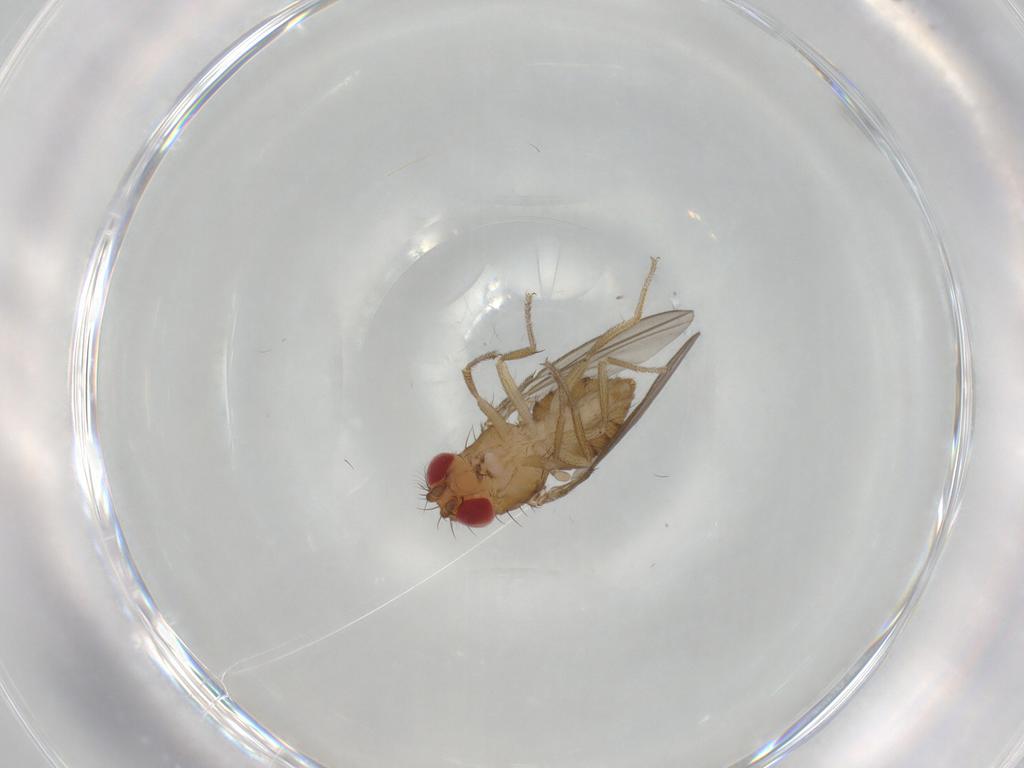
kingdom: Animalia
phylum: Arthropoda
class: Insecta
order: Diptera
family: Drosophilidae
